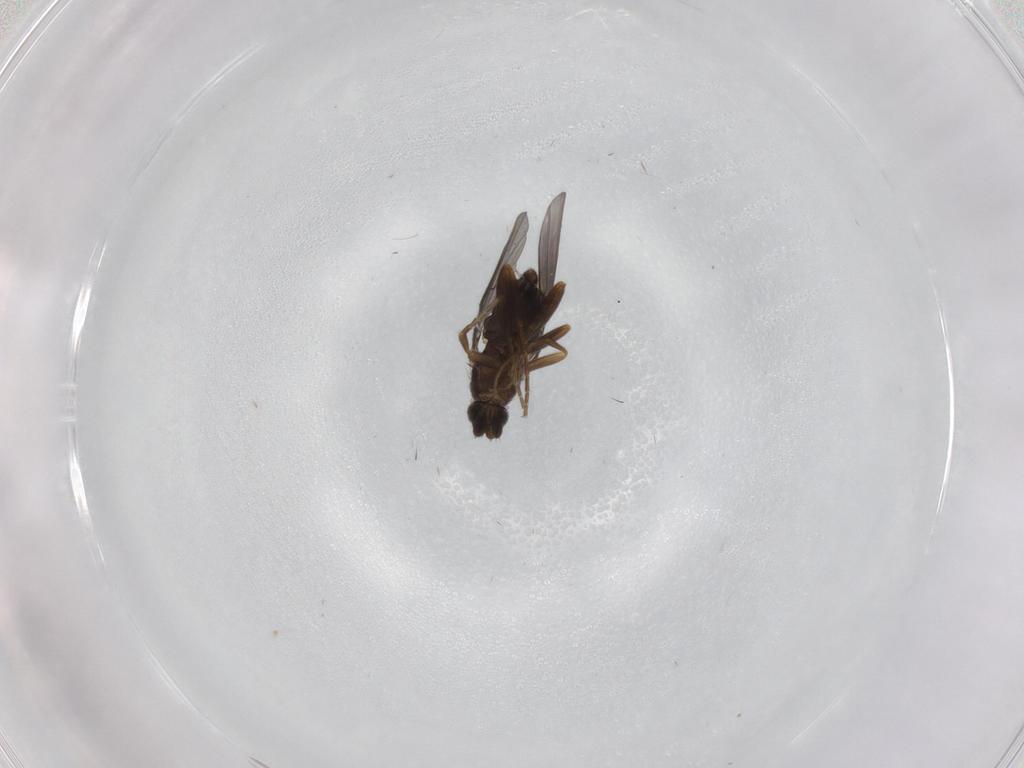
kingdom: Animalia
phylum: Arthropoda
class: Insecta
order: Diptera
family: Phoridae
